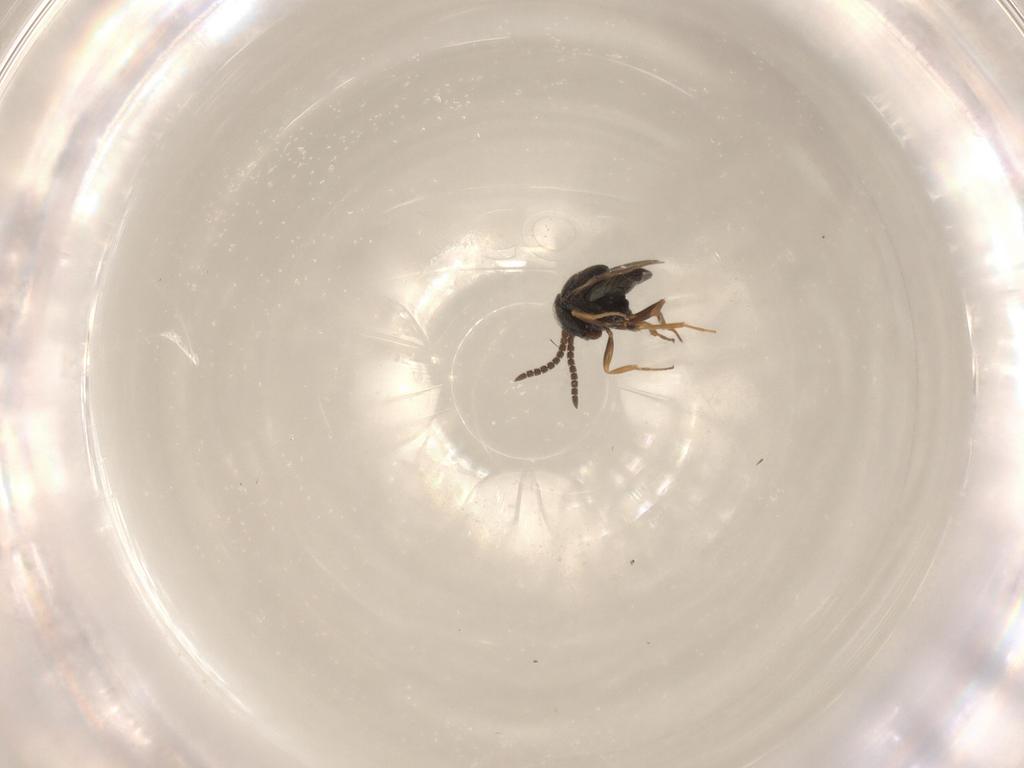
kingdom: Animalia
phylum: Arthropoda
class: Insecta
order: Hymenoptera
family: Scelionidae
